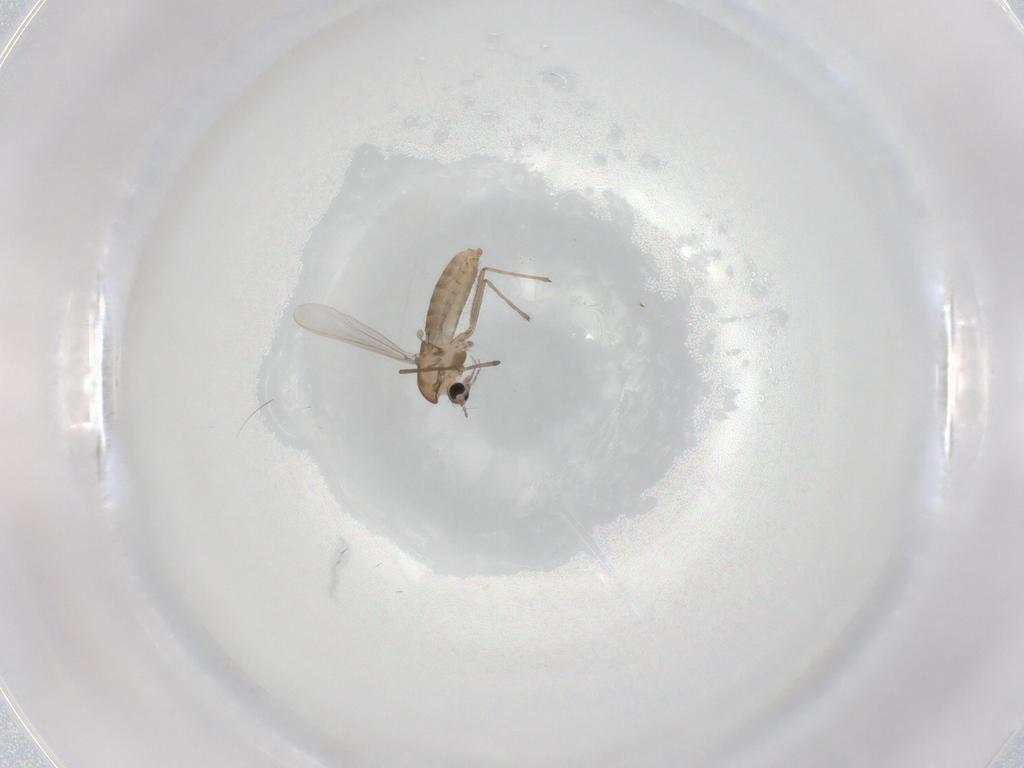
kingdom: Animalia
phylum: Arthropoda
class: Insecta
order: Diptera
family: Chironomidae
